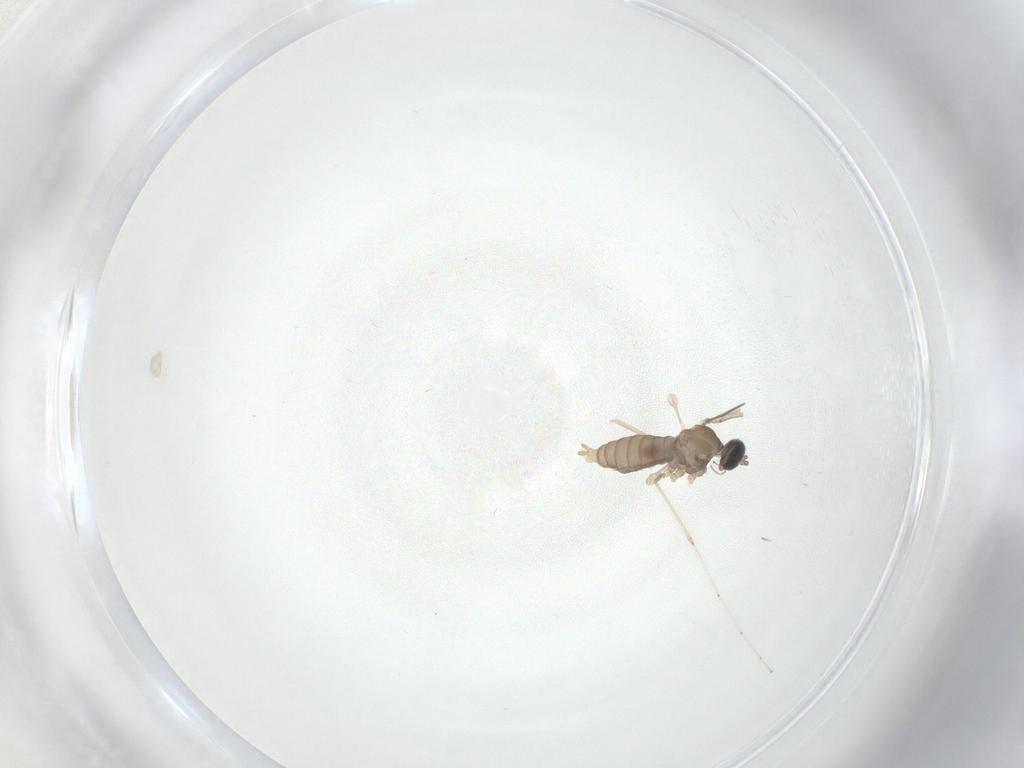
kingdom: Animalia
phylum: Arthropoda
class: Insecta
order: Diptera
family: Cecidomyiidae
